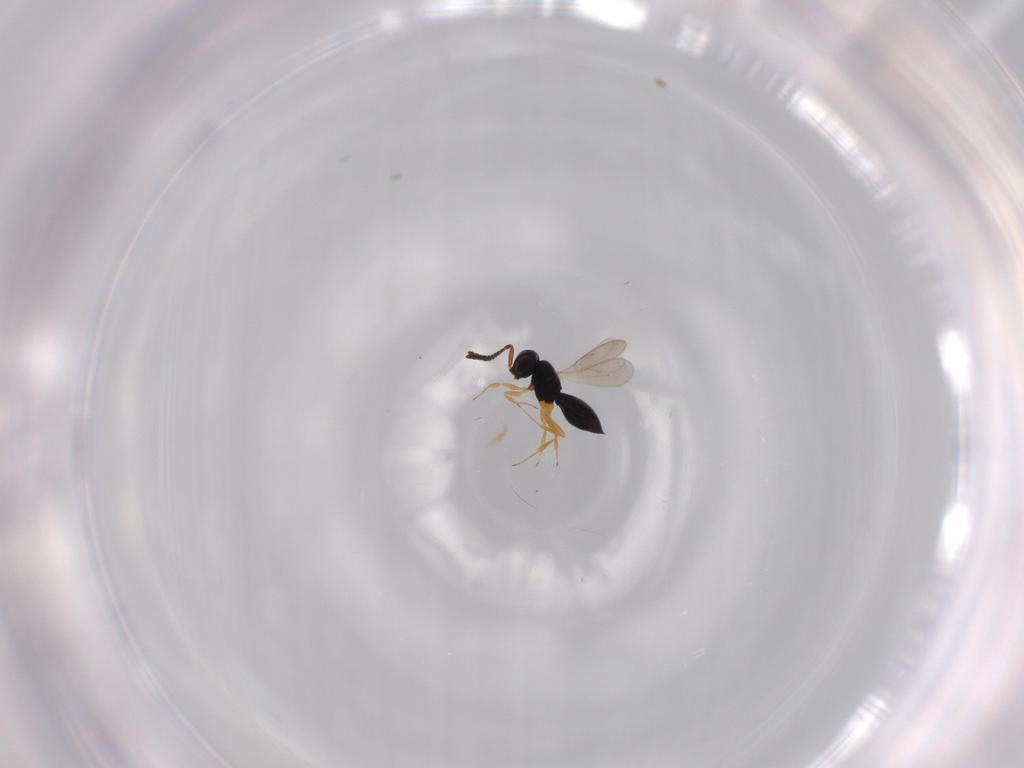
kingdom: Animalia
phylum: Arthropoda
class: Insecta
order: Hymenoptera
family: Scelionidae
